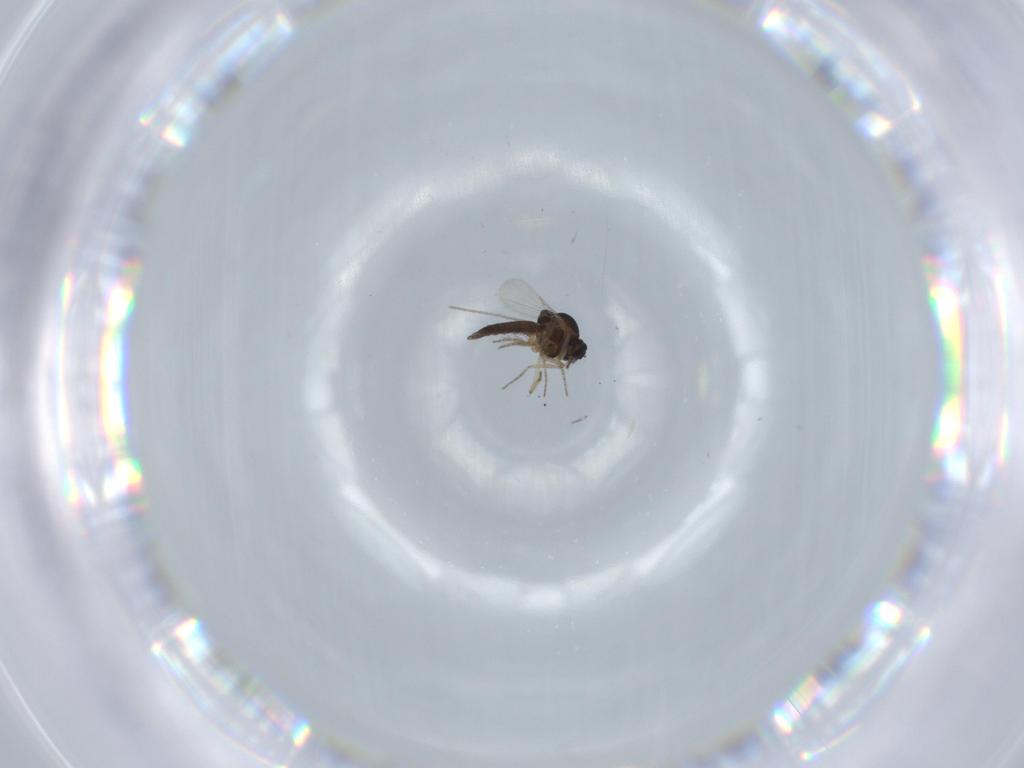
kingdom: Animalia
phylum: Arthropoda
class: Insecta
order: Diptera
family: Ceratopogonidae
